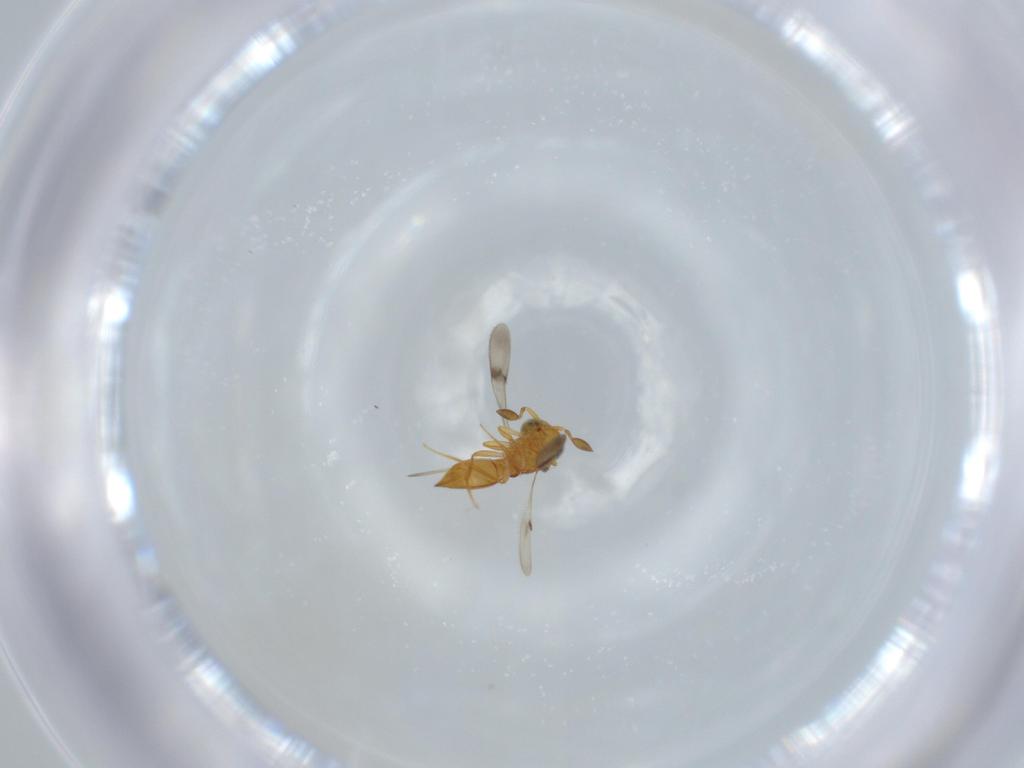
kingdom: Animalia
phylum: Arthropoda
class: Insecta
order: Hymenoptera
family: Scelionidae
